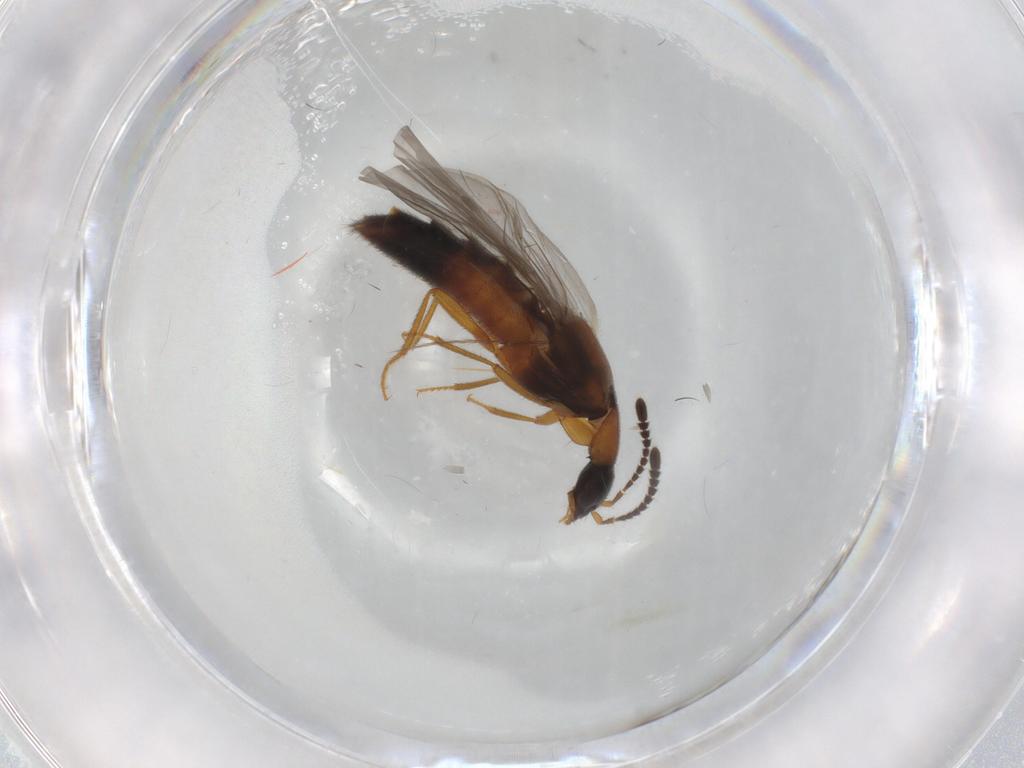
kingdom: Animalia
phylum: Arthropoda
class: Insecta
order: Coleoptera
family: Staphylinidae
